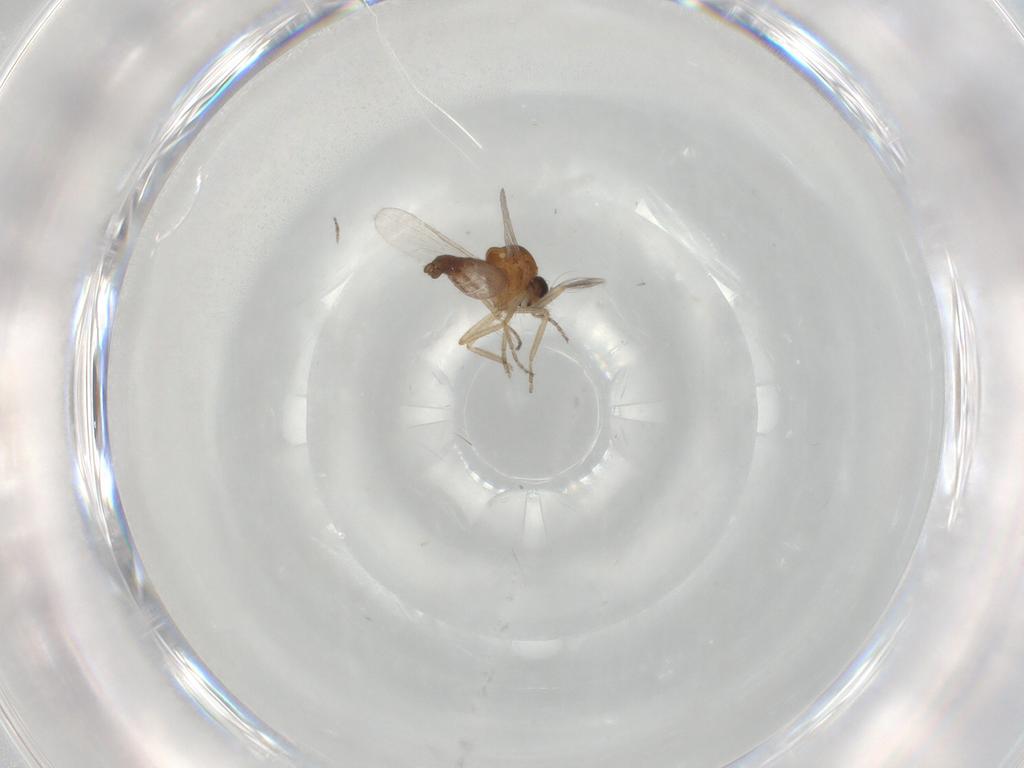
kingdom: Animalia
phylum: Arthropoda
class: Insecta
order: Diptera
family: Ceratopogonidae
